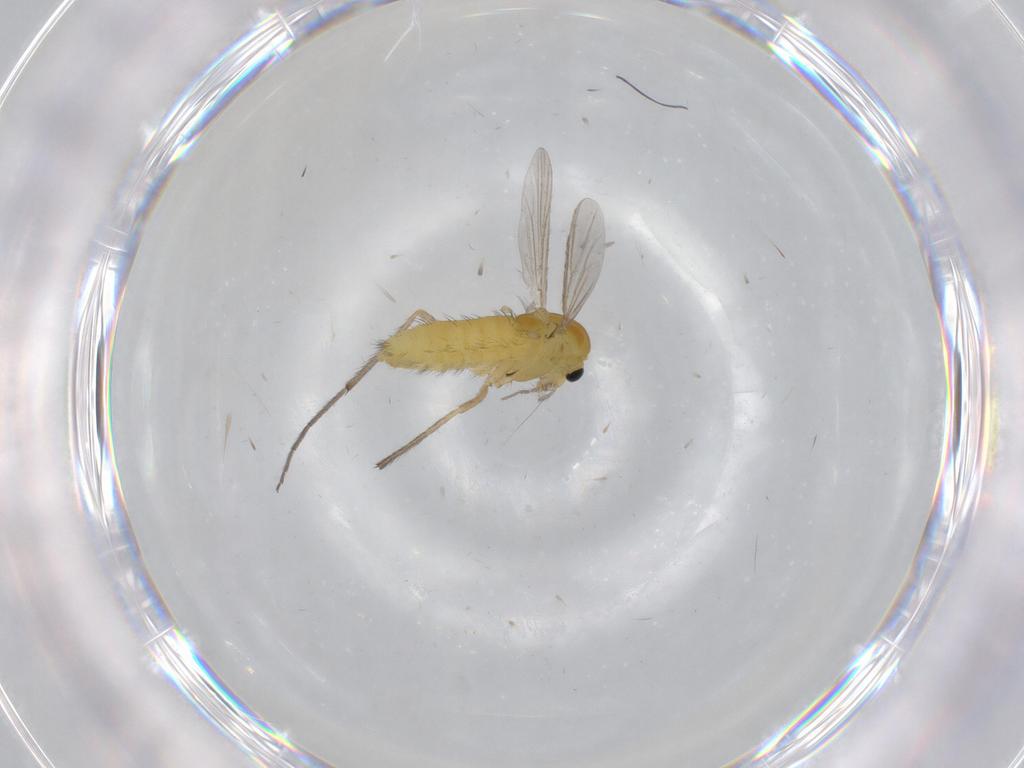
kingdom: Animalia
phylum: Arthropoda
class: Insecta
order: Diptera
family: Chironomidae
